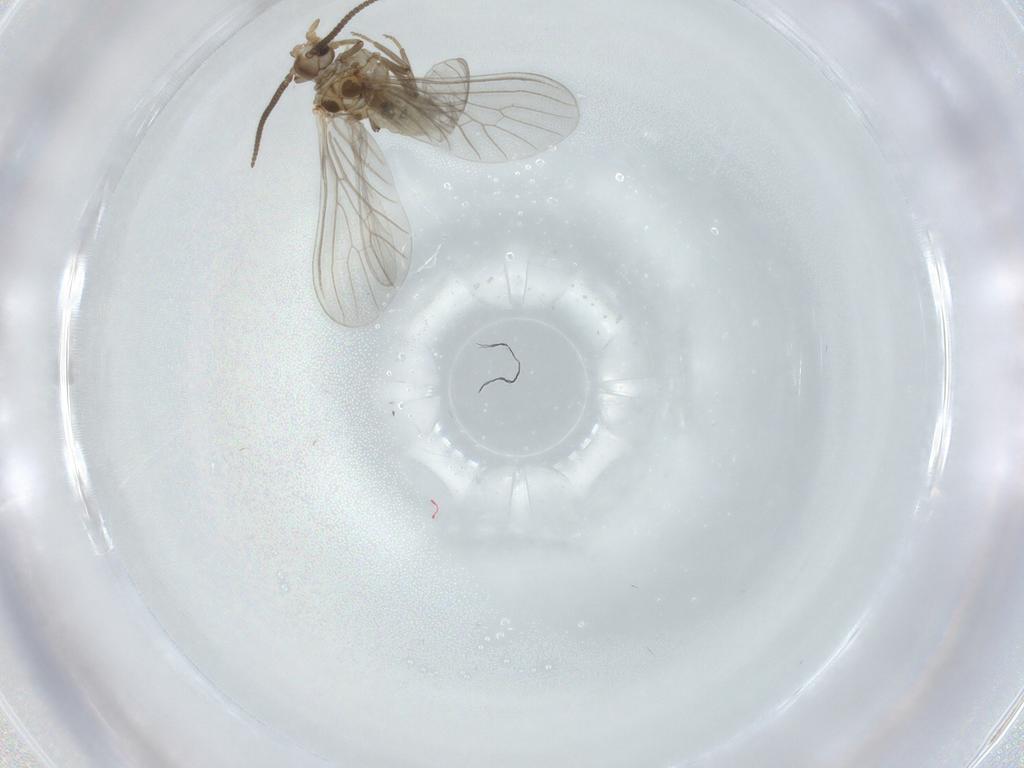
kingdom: Animalia
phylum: Arthropoda
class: Insecta
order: Neuroptera
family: Coniopterygidae
